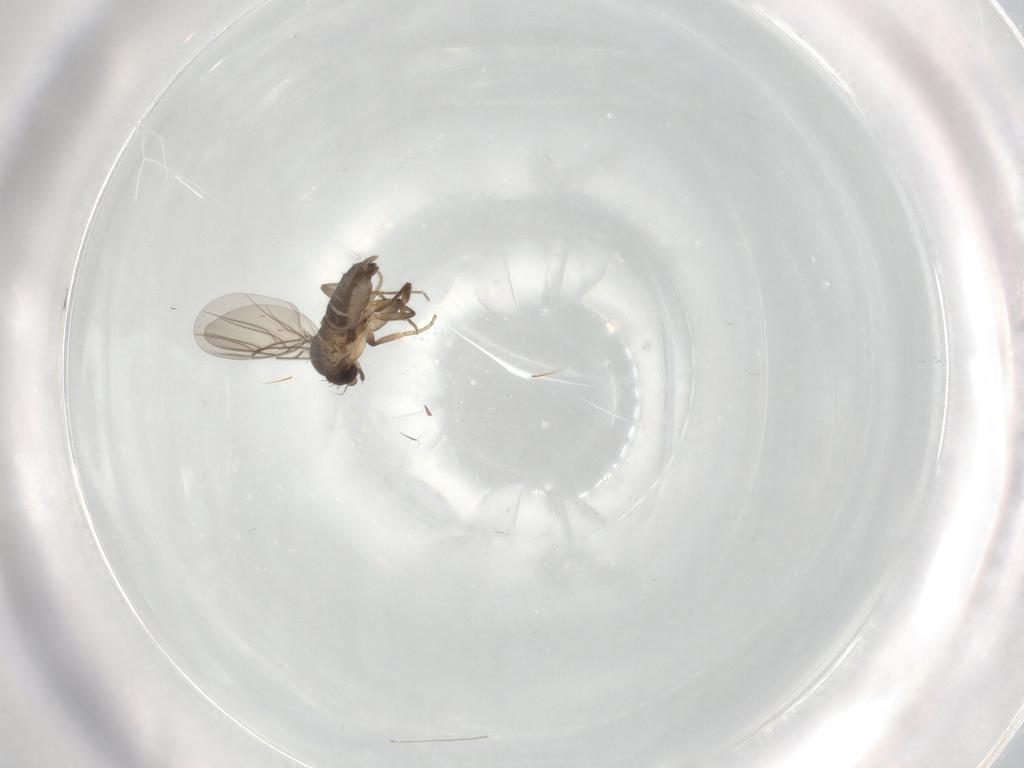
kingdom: Animalia
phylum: Arthropoda
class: Insecta
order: Diptera
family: Cecidomyiidae
